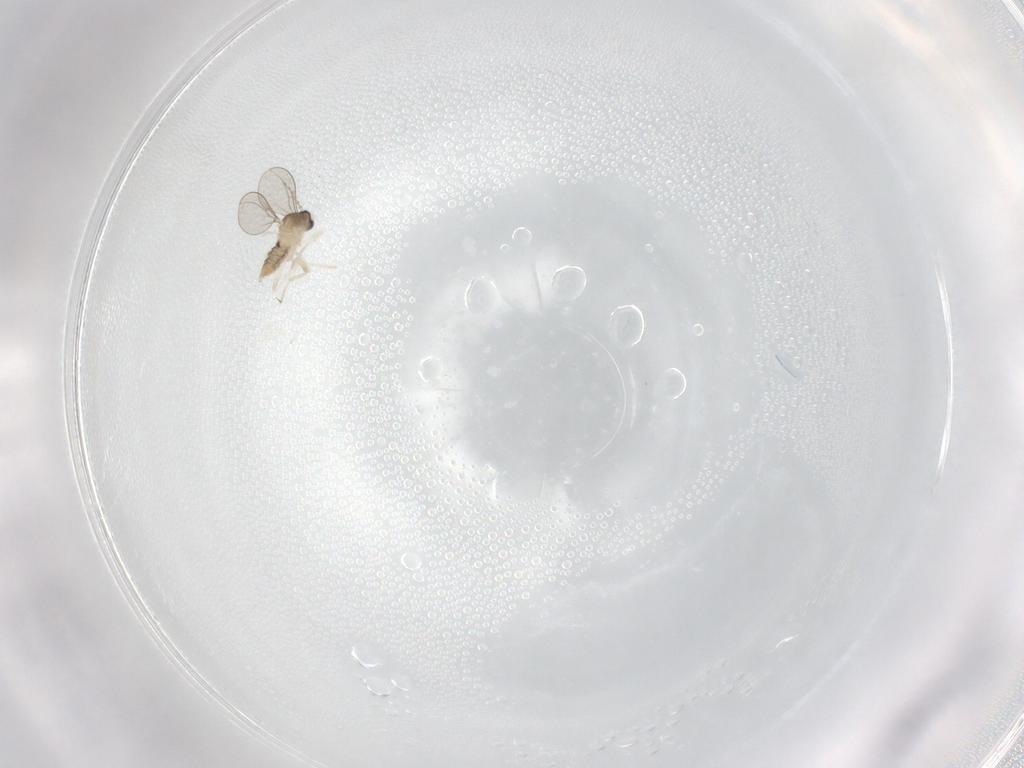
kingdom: Animalia
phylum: Arthropoda
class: Insecta
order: Diptera
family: Cecidomyiidae
